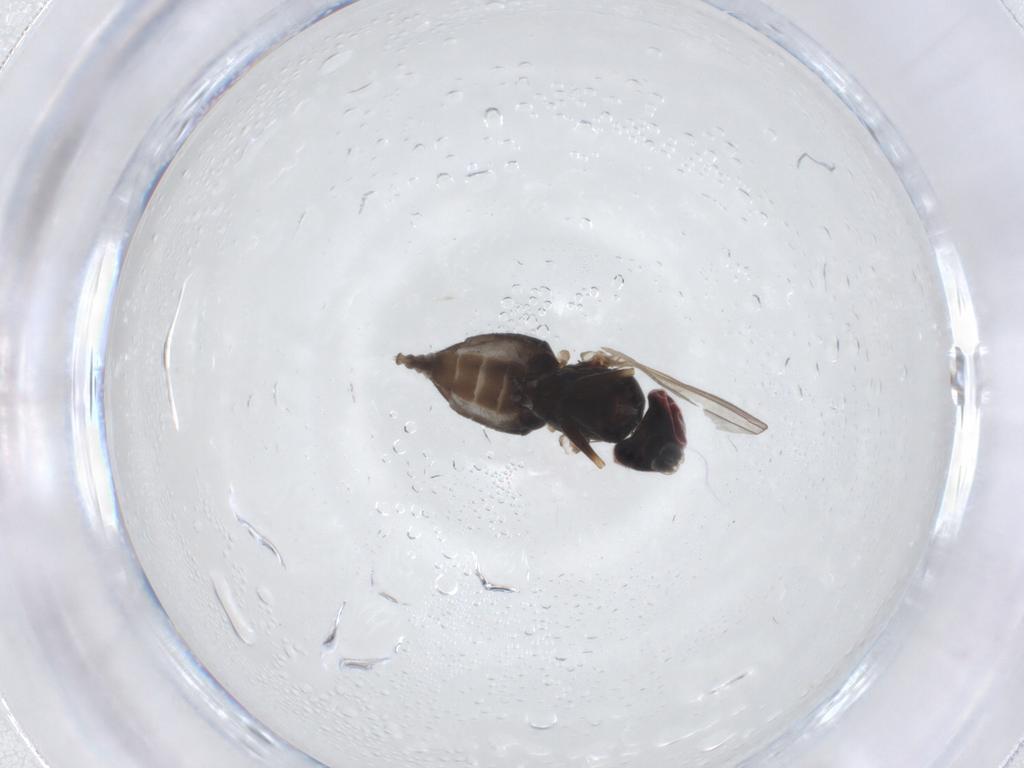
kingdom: Animalia
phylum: Arthropoda
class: Insecta
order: Diptera
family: Dolichopodidae
